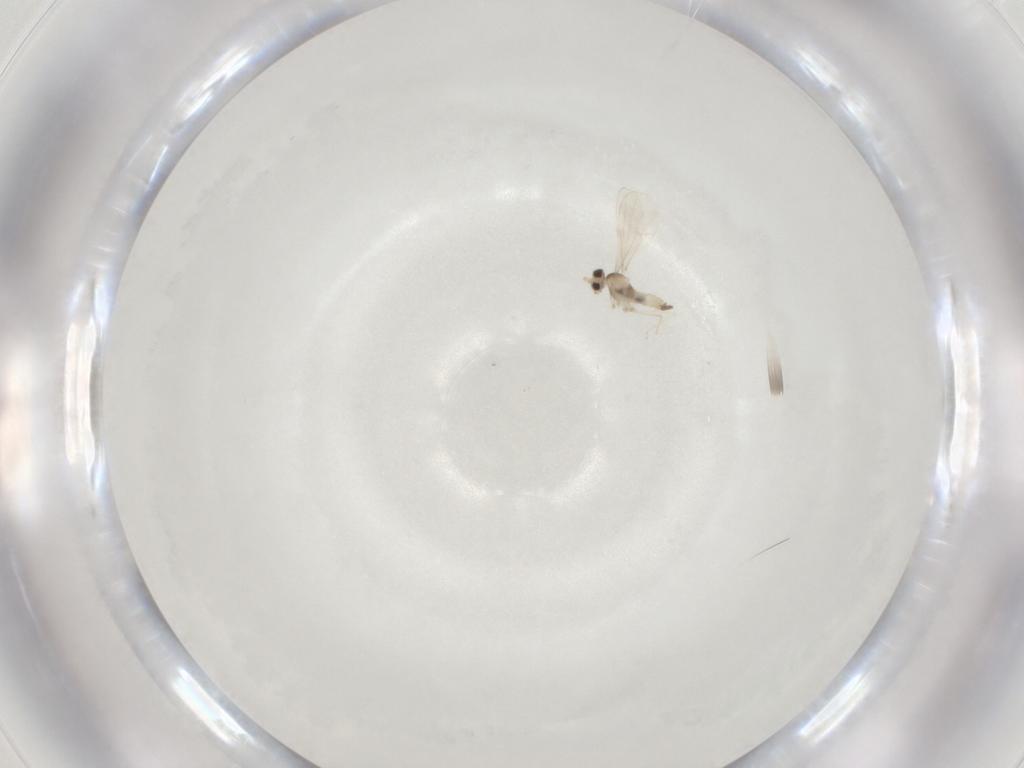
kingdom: Animalia
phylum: Arthropoda
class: Insecta
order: Diptera
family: Cecidomyiidae
